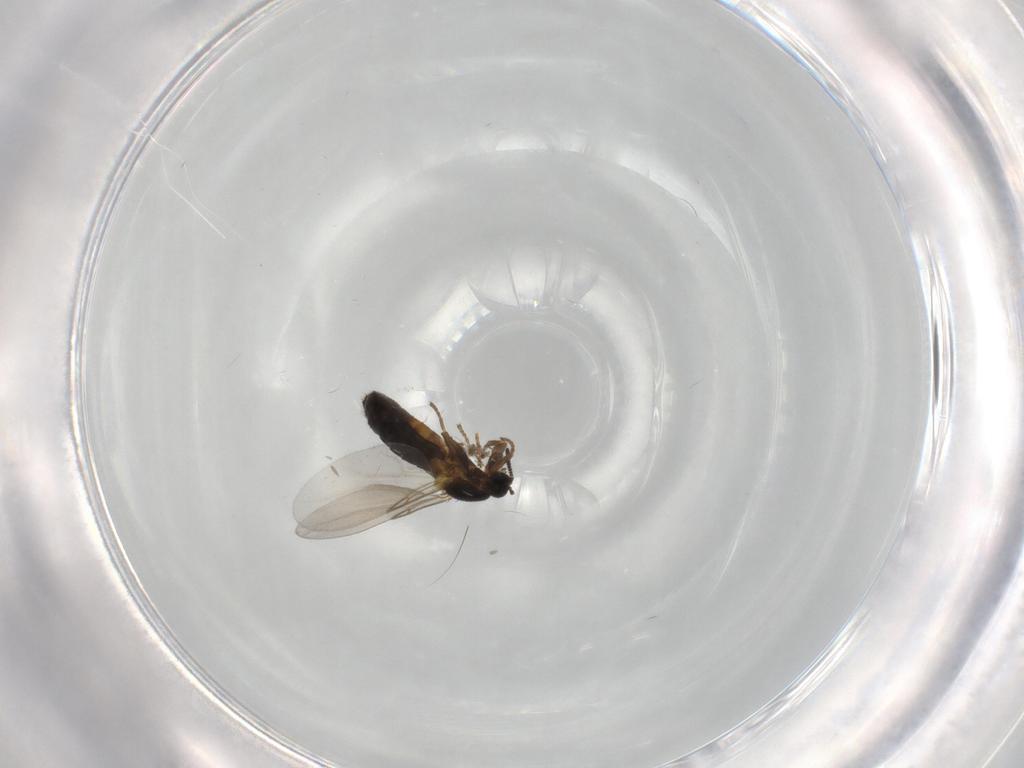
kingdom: Animalia
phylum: Arthropoda
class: Insecta
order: Diptera
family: Scatopsidae
